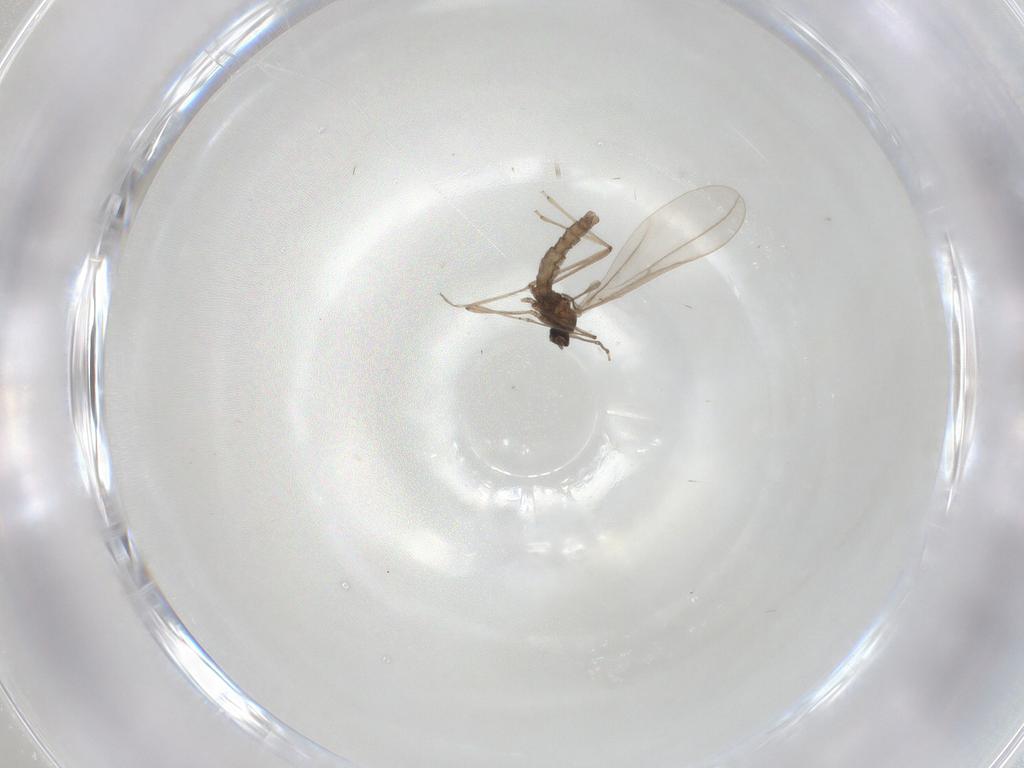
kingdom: Animalia
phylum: Arthropoda
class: Insecta
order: Diptera
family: Cecidomyiidae
